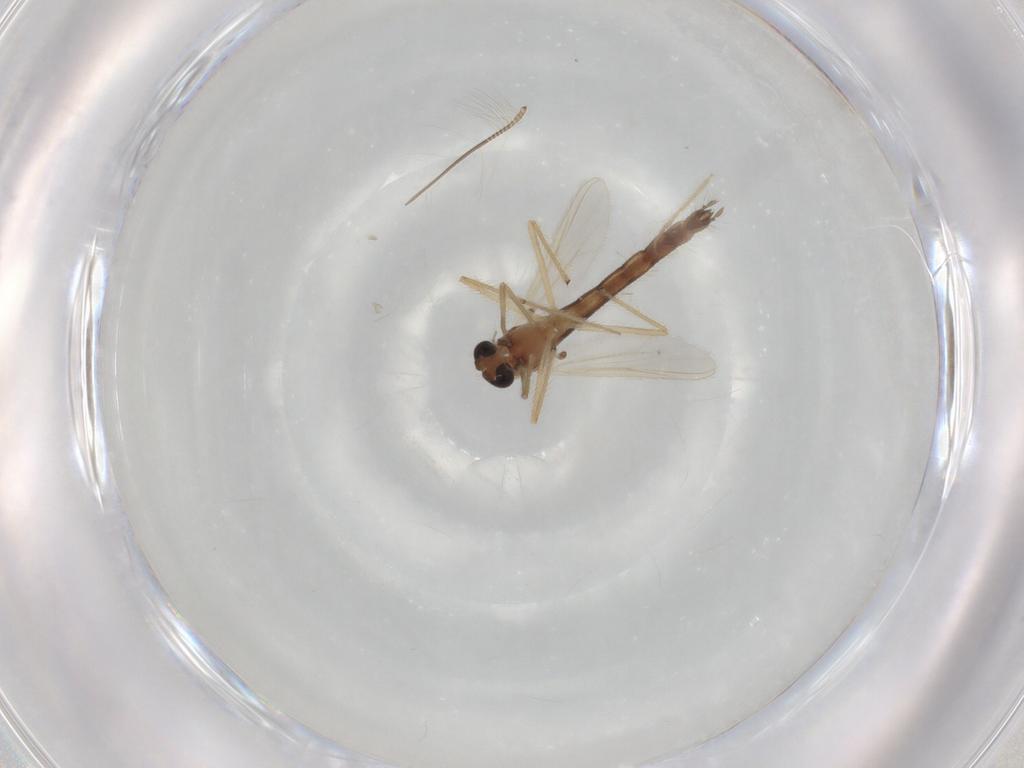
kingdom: Animalia
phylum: Arthropoda
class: Insecta
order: Diptera
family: Chironomidae
